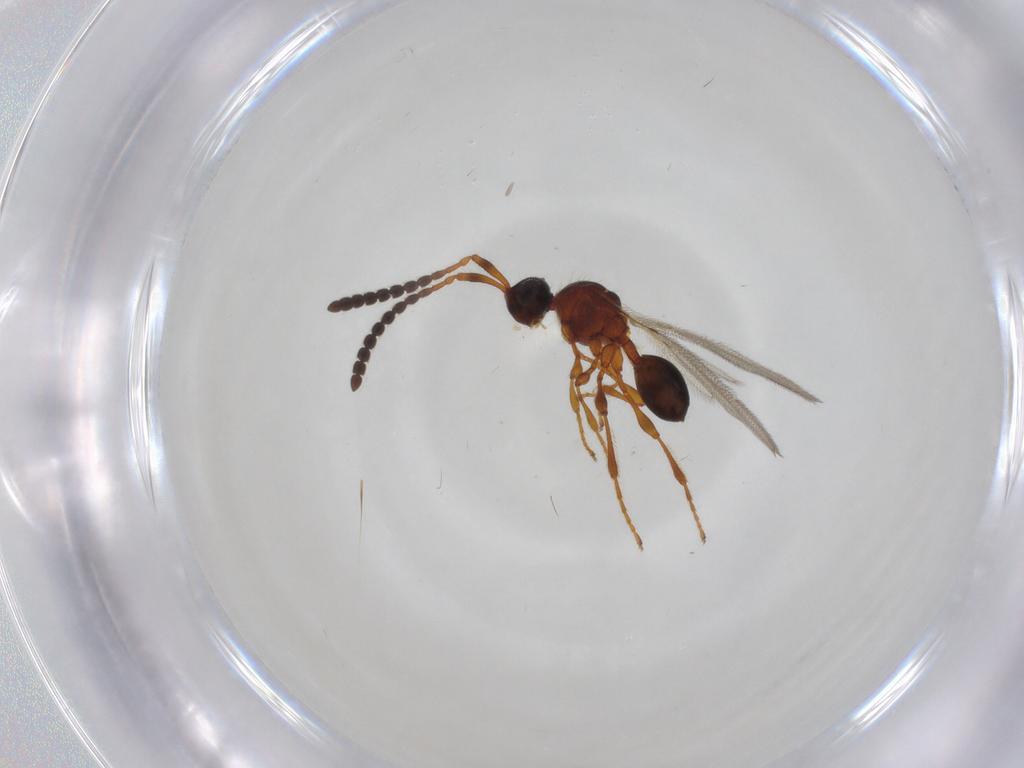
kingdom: Animalia
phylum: Arthropoda
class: Insecta
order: Hymenoptera
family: Diapriidae
